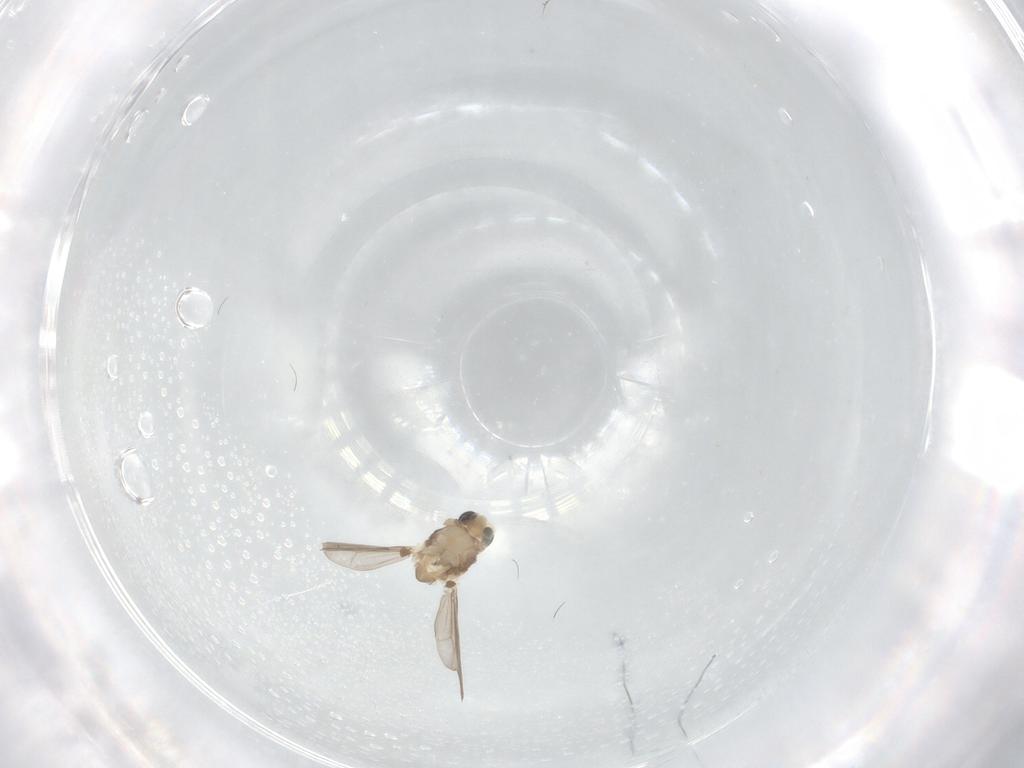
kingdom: Animalia
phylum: Arthropoda
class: Insecta
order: Diptera
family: Chironomidae
